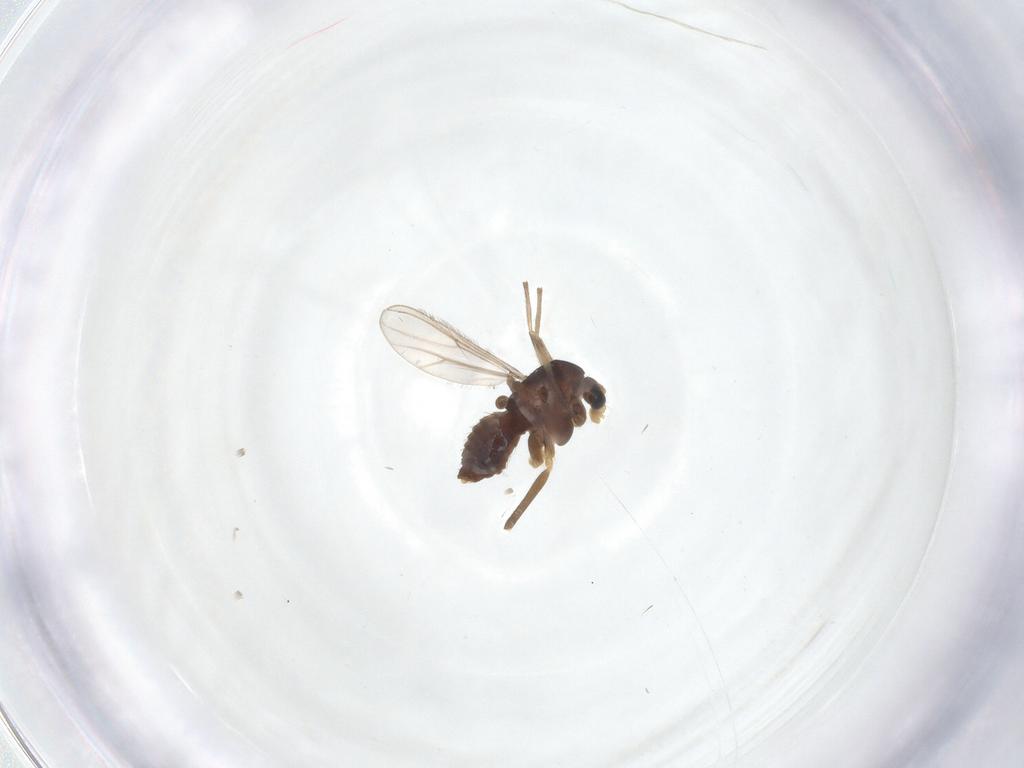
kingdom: Animalia
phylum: Arthropoda
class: Insecta
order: Diptera
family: Chironomidae
